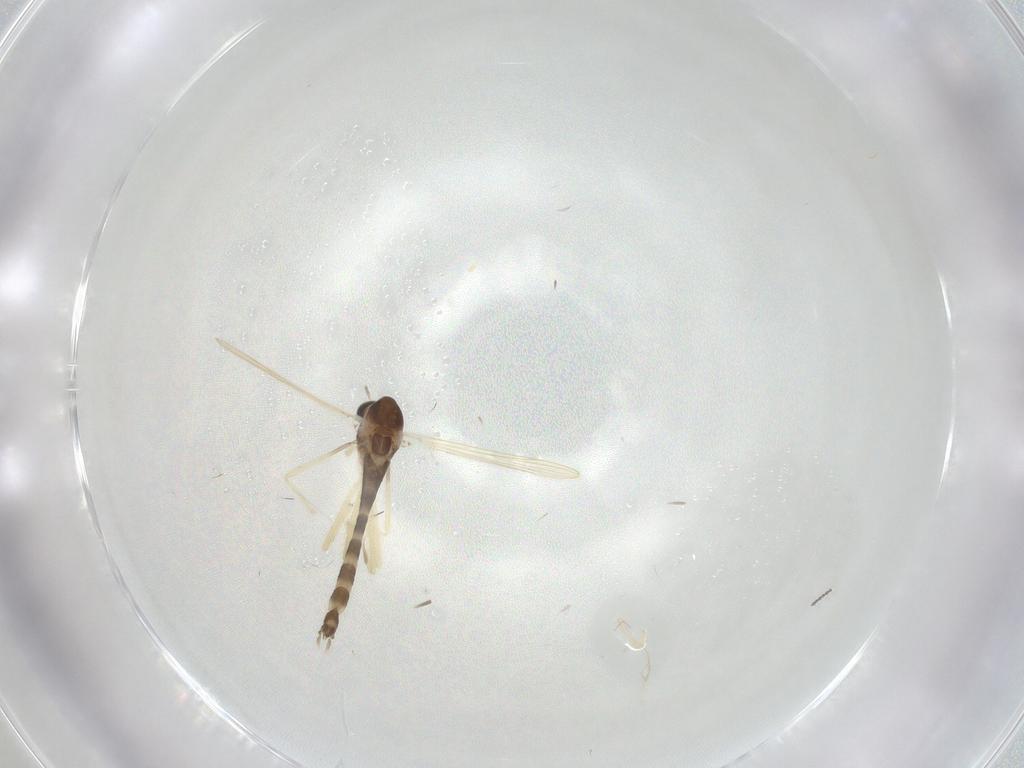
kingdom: Animalia
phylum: Arthropoda
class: Insecta
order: Diptera
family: Chironomidae
